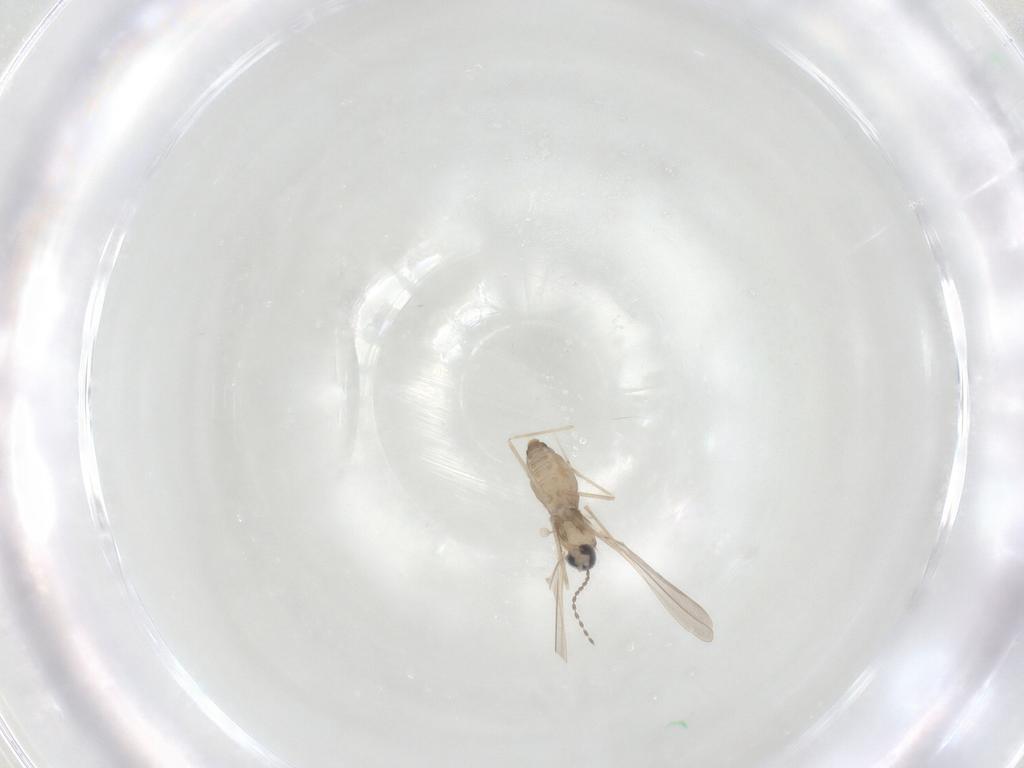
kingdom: Animalia
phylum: Arthropoda
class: Insecta
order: Diptera
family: Cecidomyiidae
